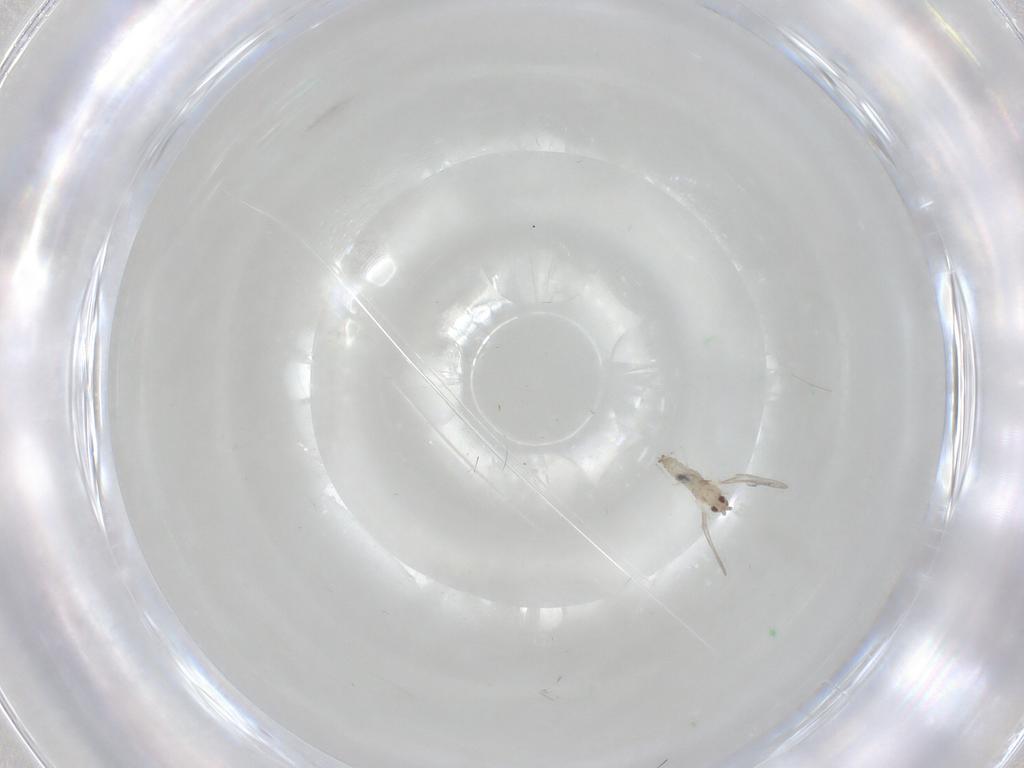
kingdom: Animalia
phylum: Arthropoda
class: Insecta
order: Diptera
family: Cecidomyiidae
